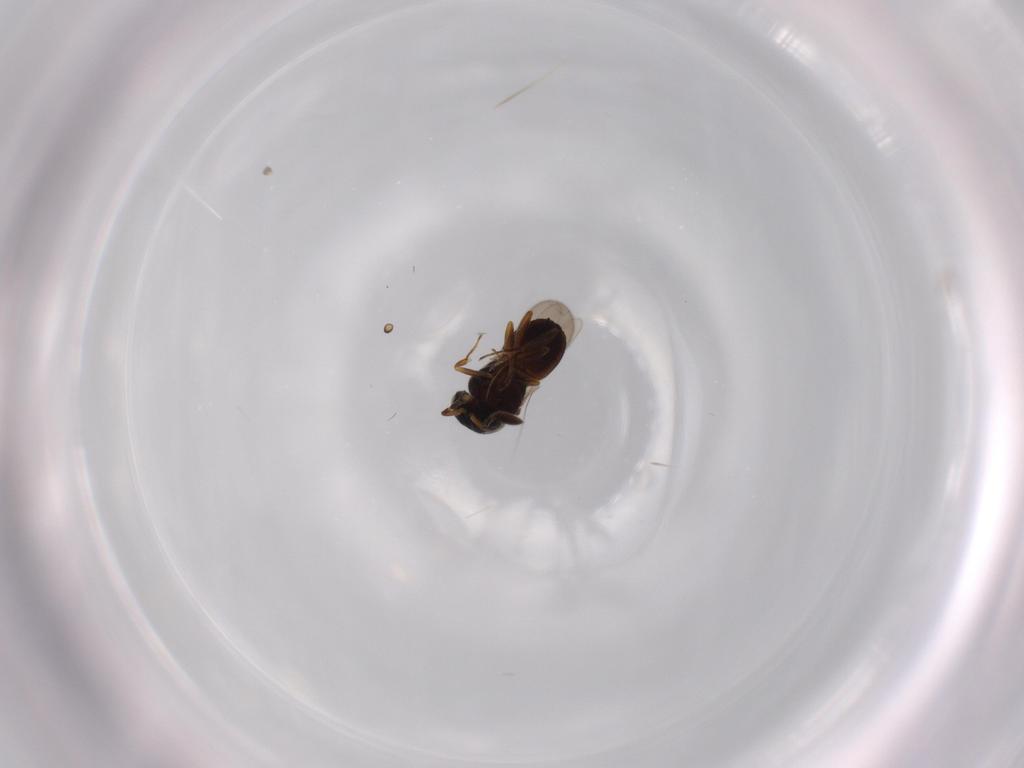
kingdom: Animalia
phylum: Arthropoda
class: Insecta
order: Coleoptera
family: Curculionidae
